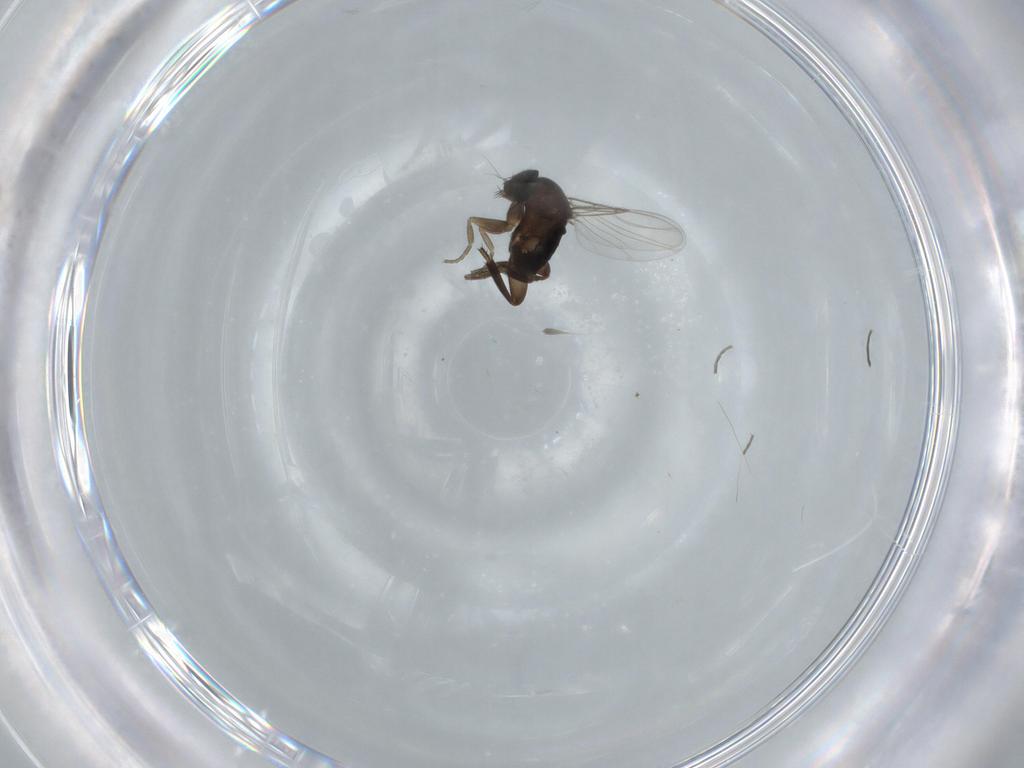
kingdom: Animalia
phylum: Arthropoda
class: Insecta
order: Diptera
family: Phoridae
